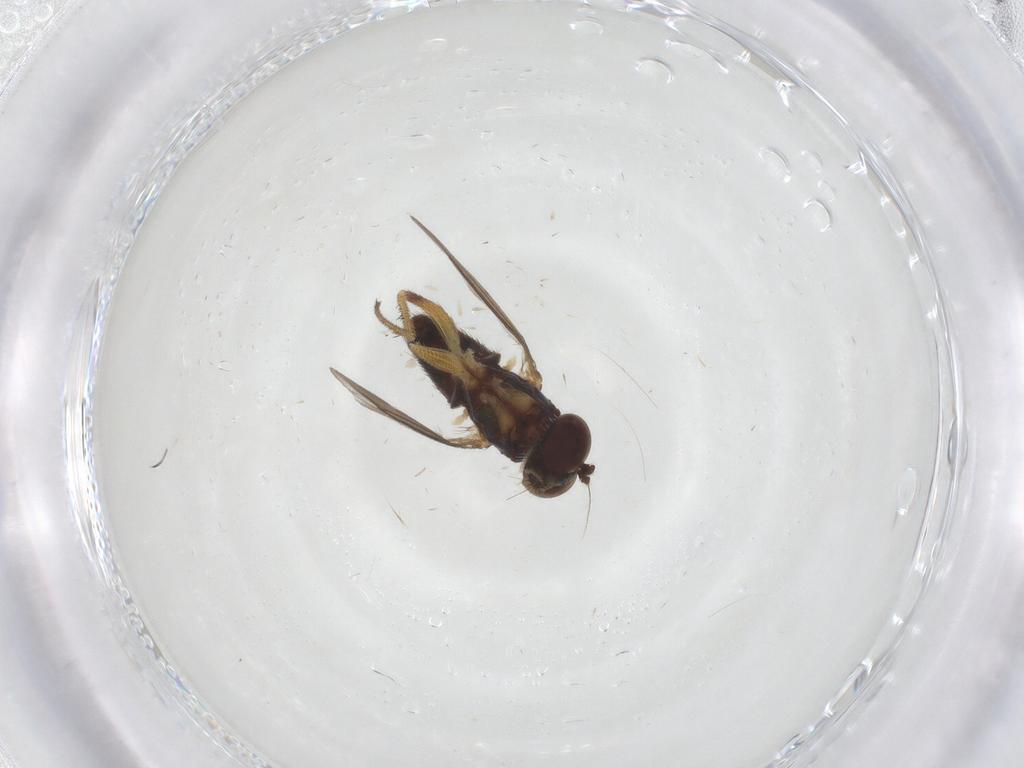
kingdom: Animalia
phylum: Arthropoda
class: Insecta
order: Diptera
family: Dolichopodidae
